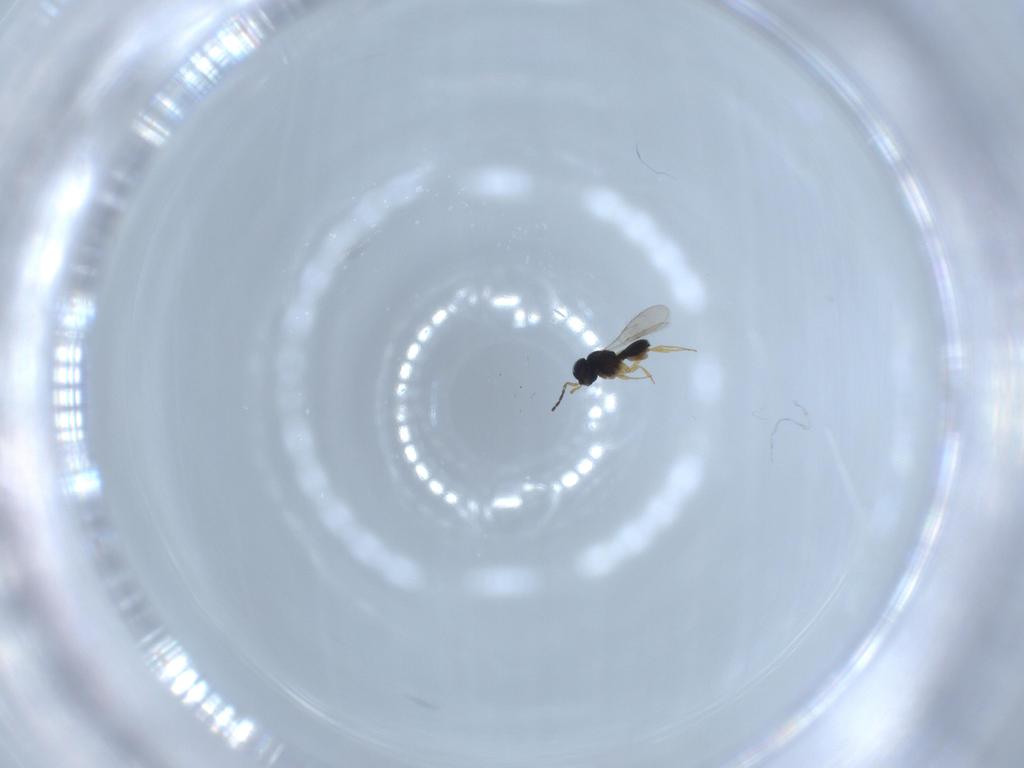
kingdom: Animalia
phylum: Arthropoda
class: Insecta
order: Hymenoptera
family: Scelionidae
